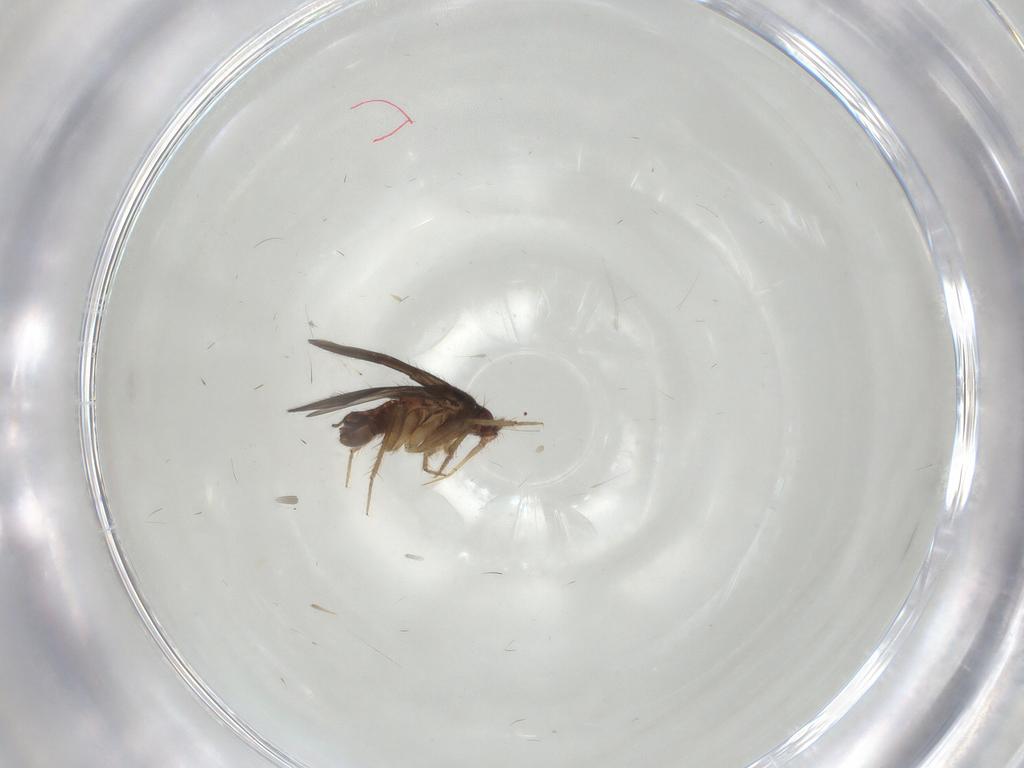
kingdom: Animalia
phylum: Arthropoda
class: Insecta
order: Hemiptera
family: Ceratocombidae
